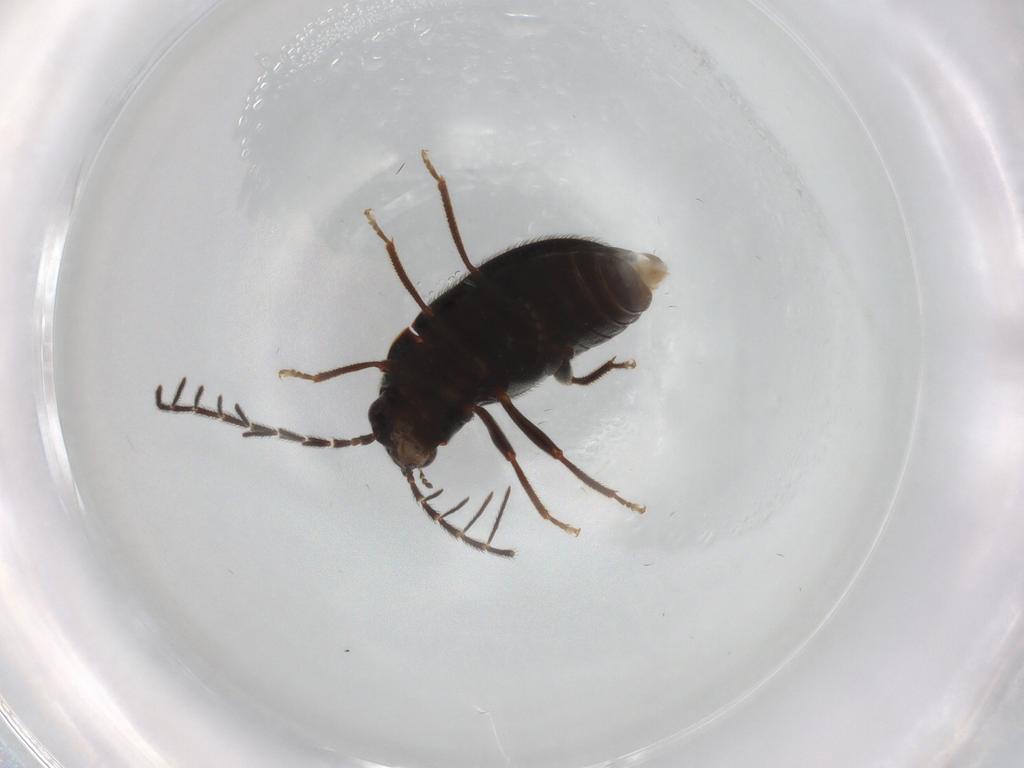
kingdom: Animalia
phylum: Arthropoda
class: Insecta
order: Coleoptera
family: Ptilodactylidae
